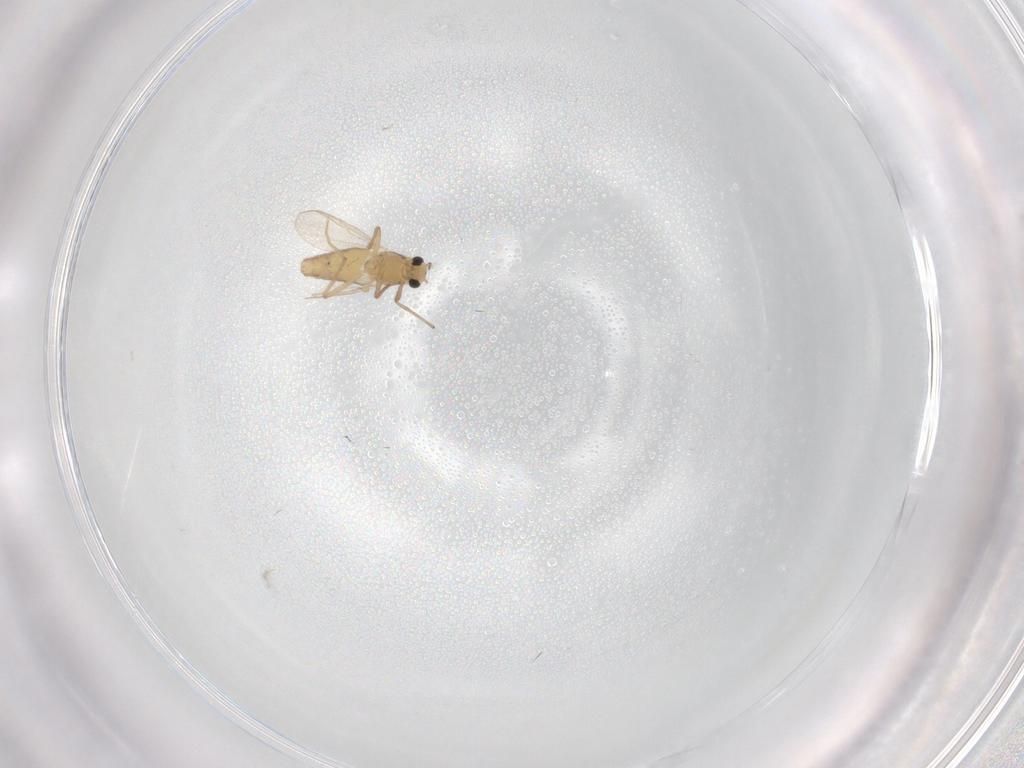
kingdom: Animalia
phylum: Arthropoda
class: Insecta
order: Diptera
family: Chironomidae
